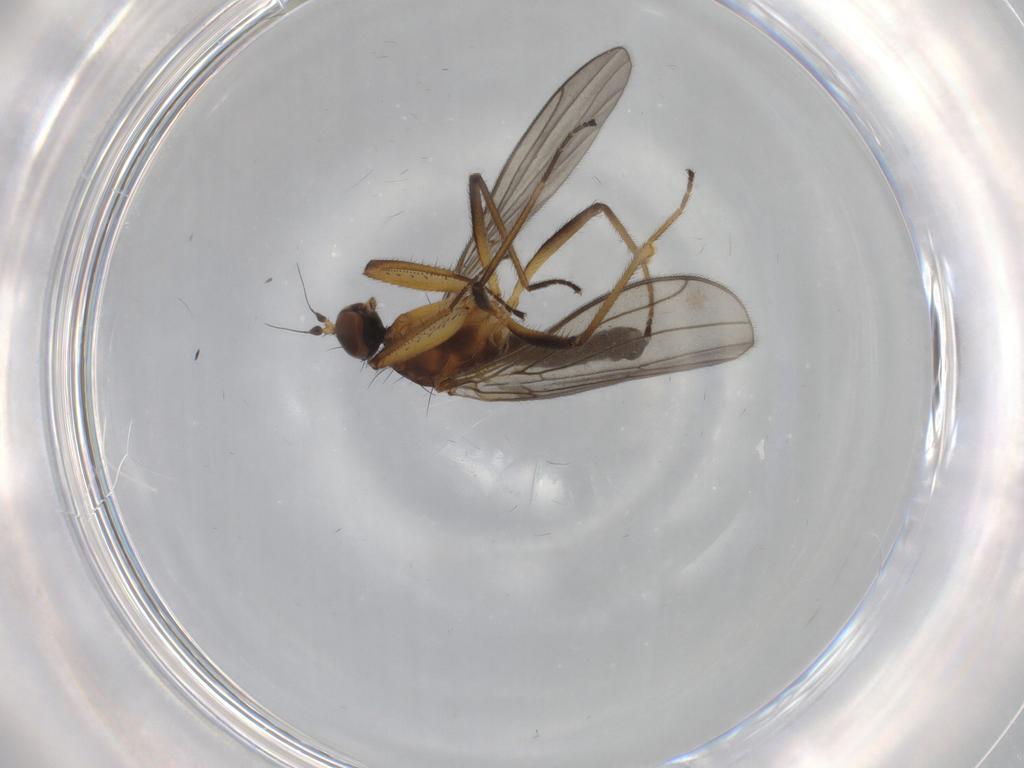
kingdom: Animalia
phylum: Arthropoda
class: Insecta
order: Diptera
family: Empididae
